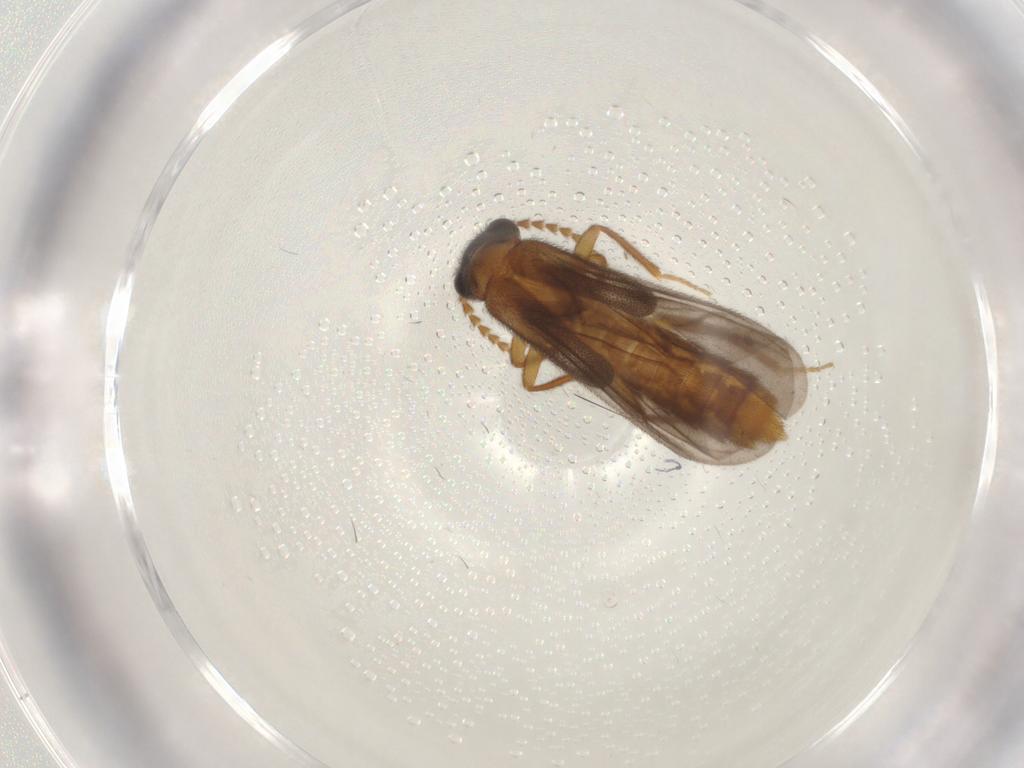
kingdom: Animalia
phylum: Arthropoda
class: Insecta
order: Coleoptera
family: Omethidae
